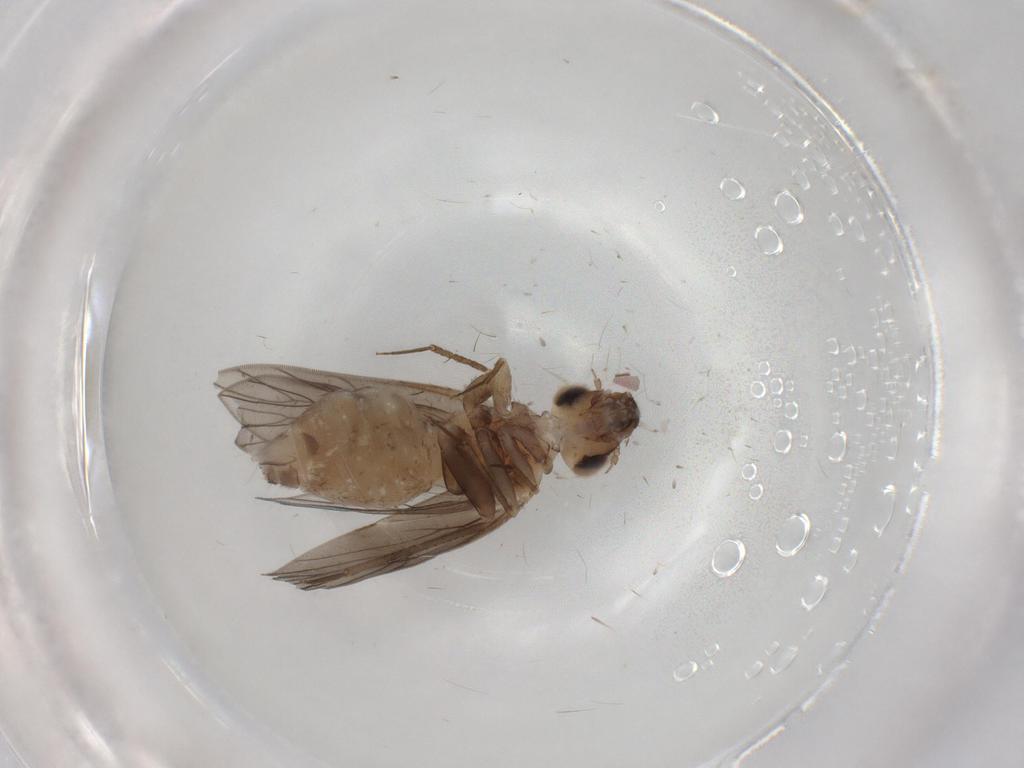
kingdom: Animalia
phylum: Arthropoda
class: Insecta
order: Psocodea
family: Lepidopsocidae
